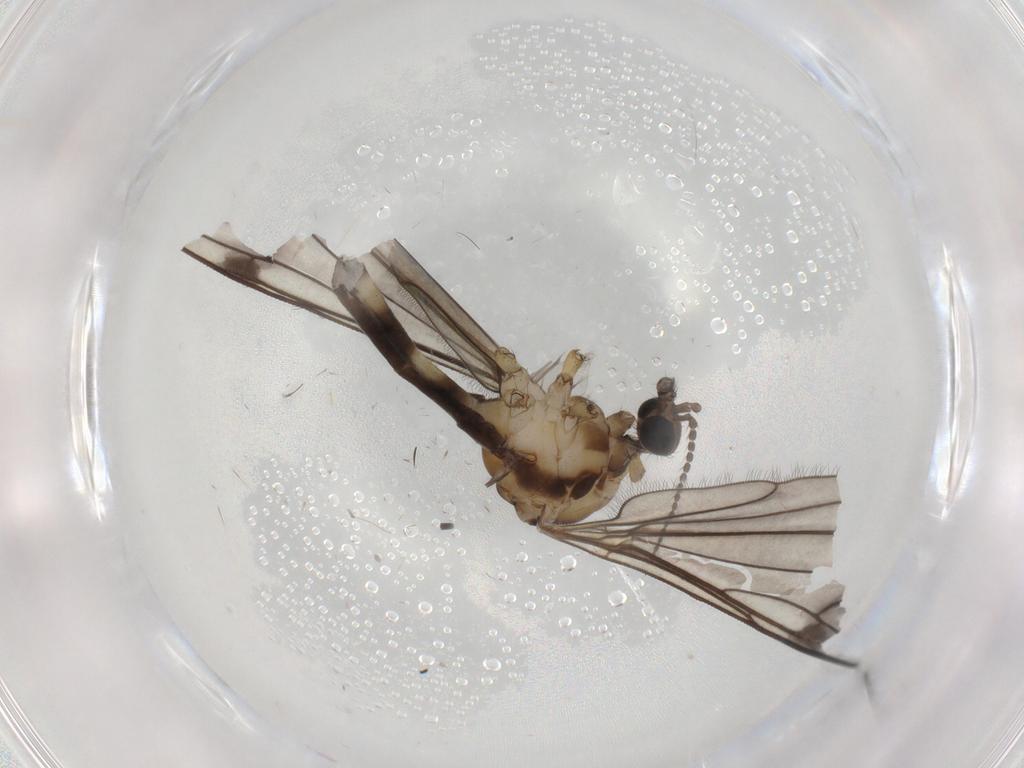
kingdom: Animalia
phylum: Arthropoda
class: Insecta
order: Diptera
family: Limoniidae
